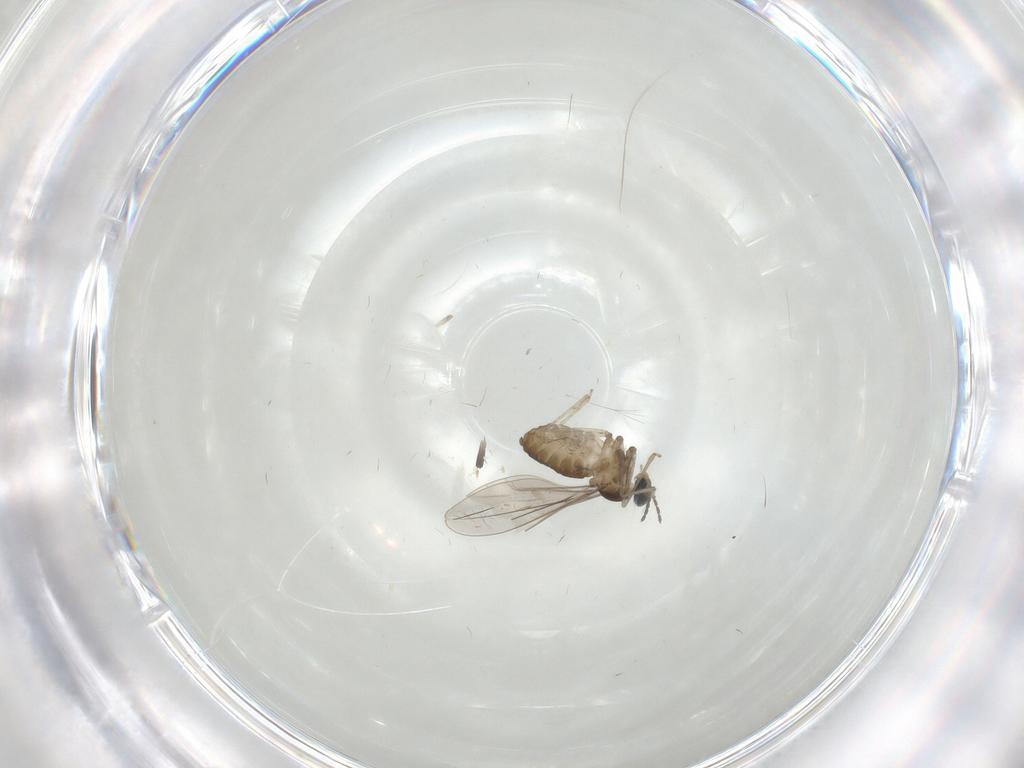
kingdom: Animalia
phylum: Arthropoda
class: Insecta
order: Diptera
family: Cecidomyiidae
